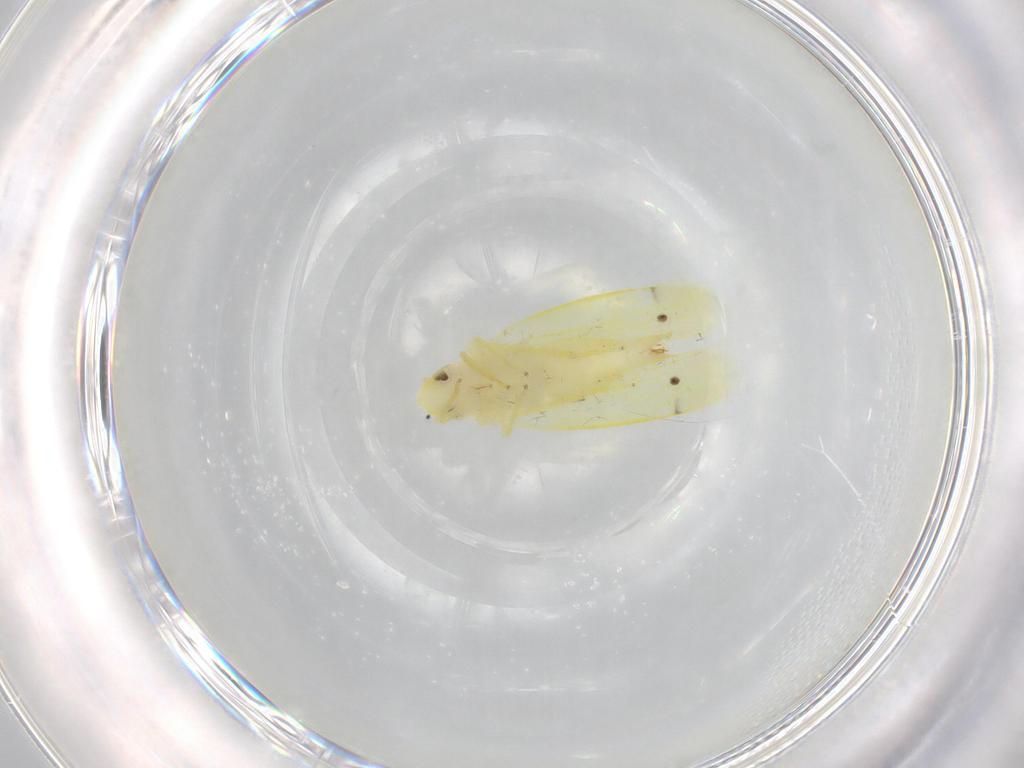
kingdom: Animalia
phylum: Arthropoda
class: Insecta
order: Hemiptera
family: Cicadellidae
